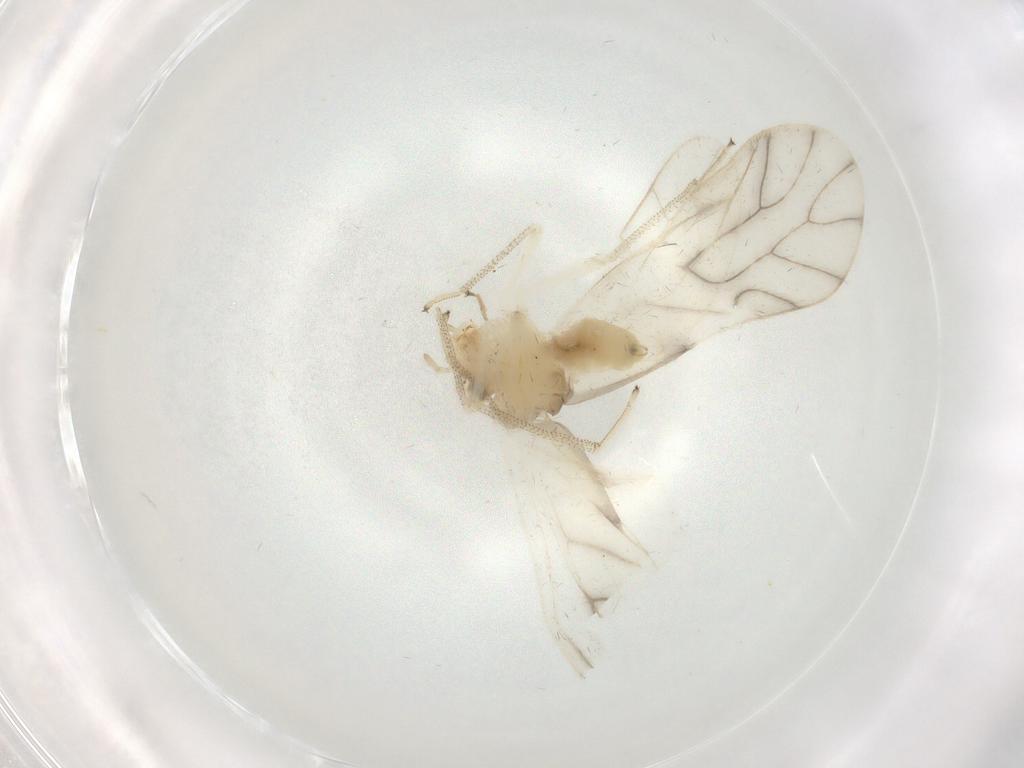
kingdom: Animalia
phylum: Arthropoda
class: Insecta
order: Psocodea
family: Caeciliusidae
